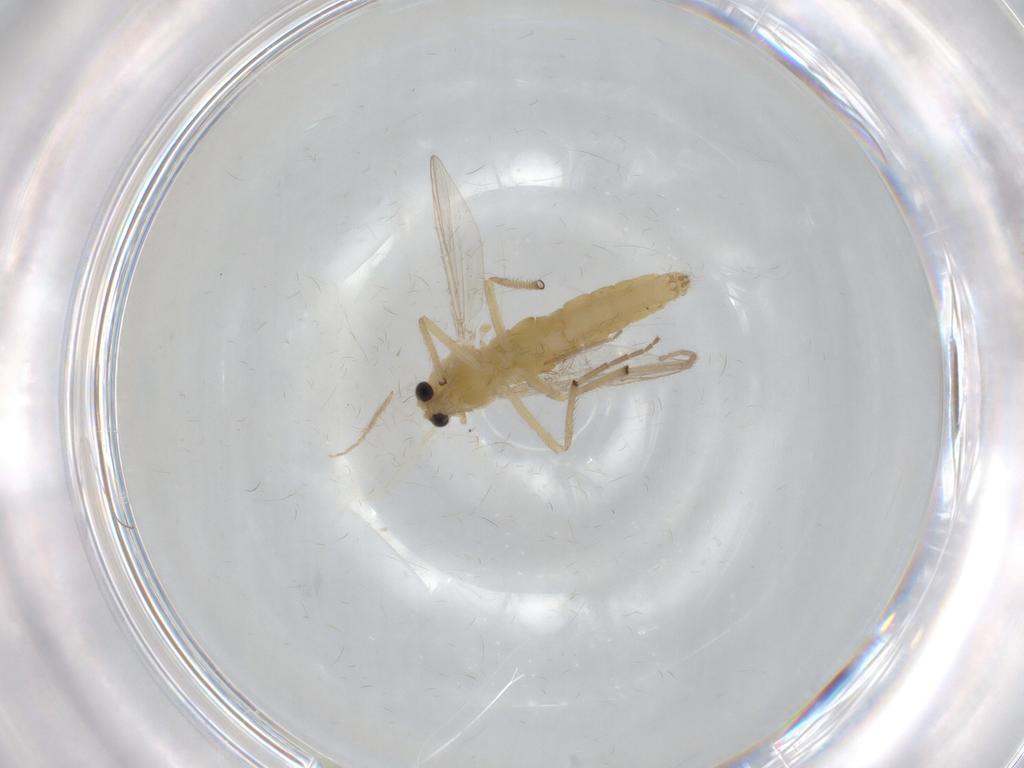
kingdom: Animalia
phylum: Arthropoda
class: Insecta
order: Diptera
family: Chironomidae
